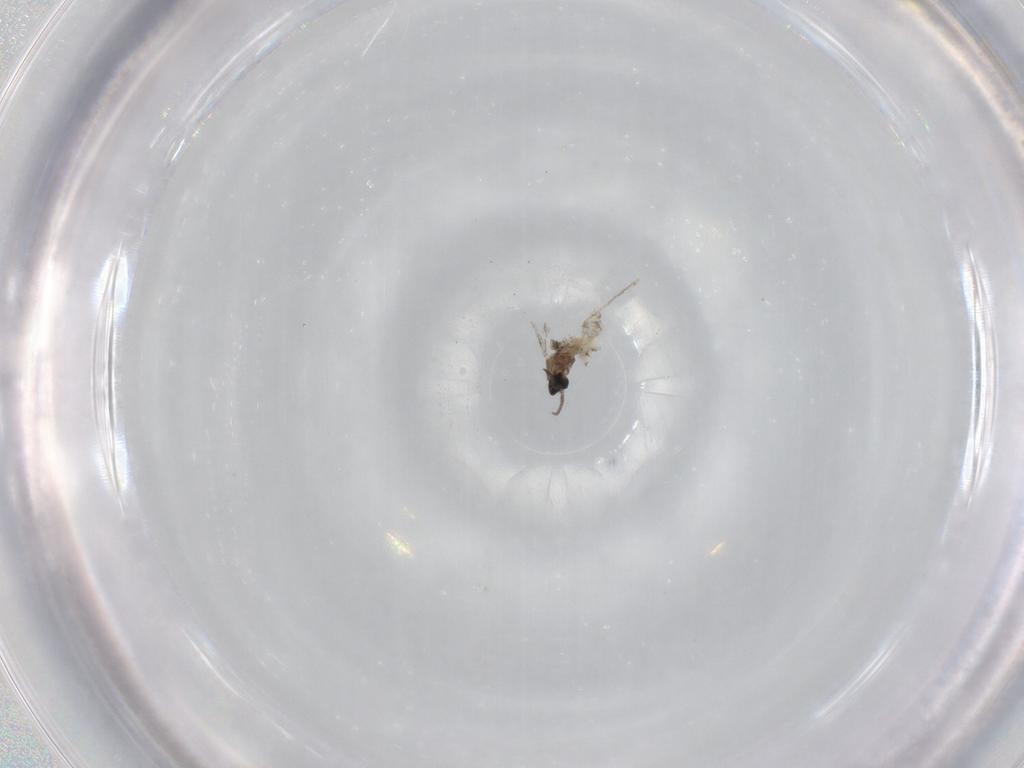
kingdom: Animalia
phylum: Arthropoda
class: Insecta
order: Diptera
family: Cecidomyiidae
